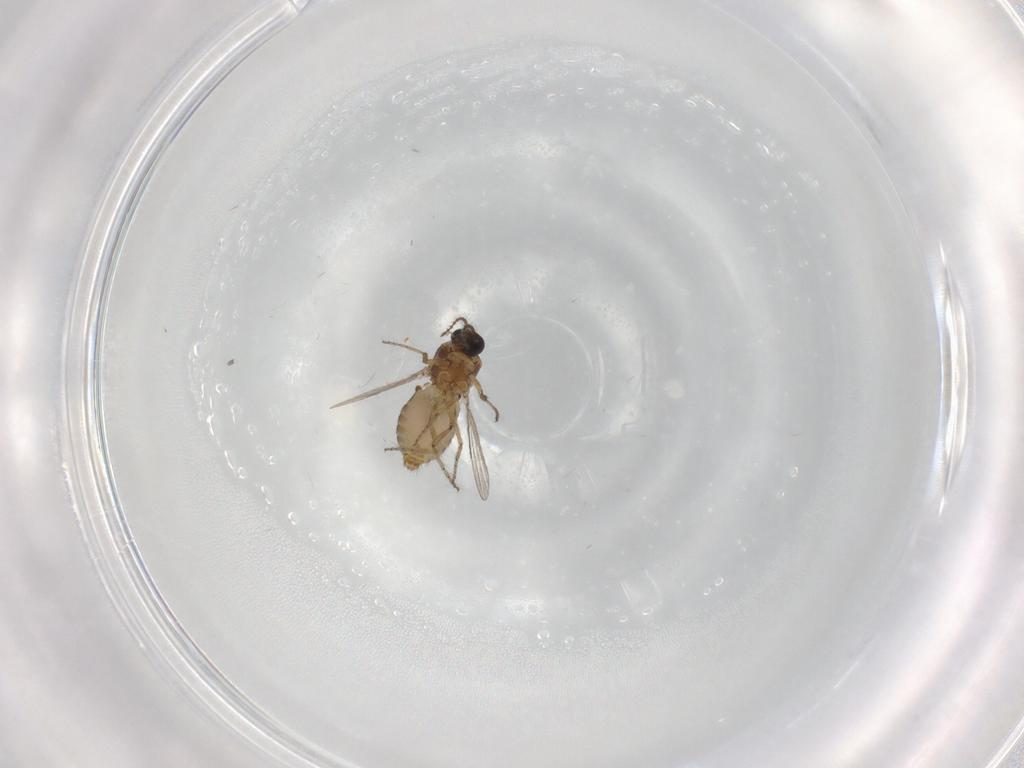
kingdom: Animalia
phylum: Arthropoda
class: Insecta
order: Diptera
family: Ceratopogonidae
